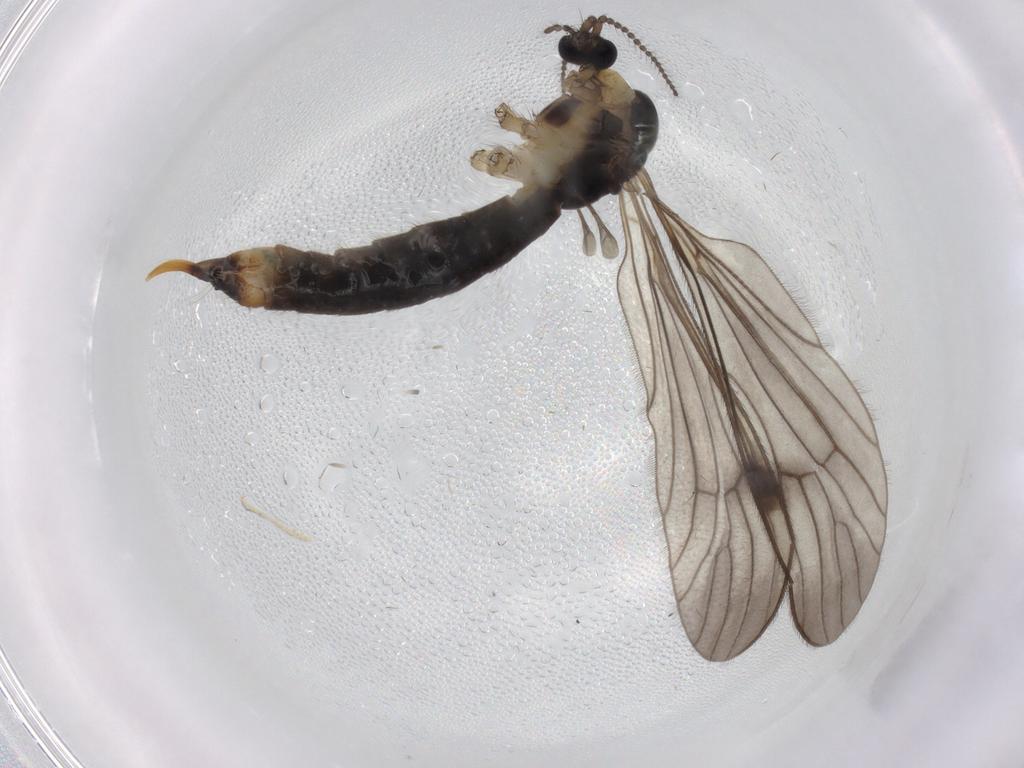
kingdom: Animalia
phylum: Arthropoda
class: Insecta
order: Diptera
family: Limoniidae
